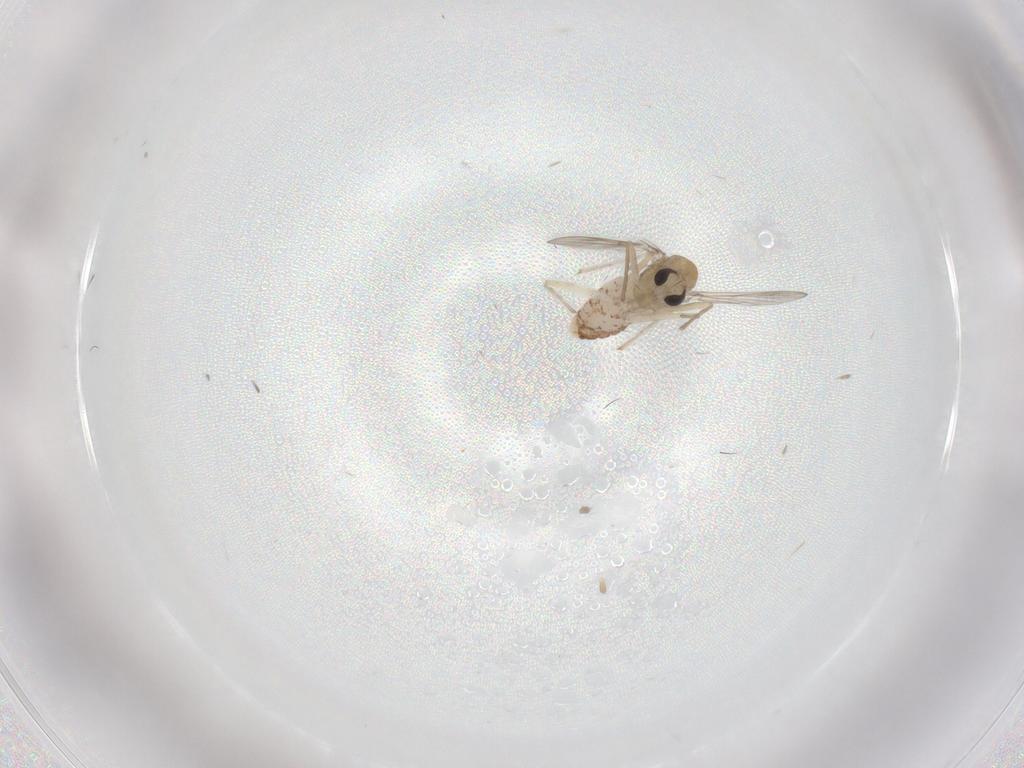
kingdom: Animalia
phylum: Arthropoda
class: Insecta
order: Diptera
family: Chironomidae
